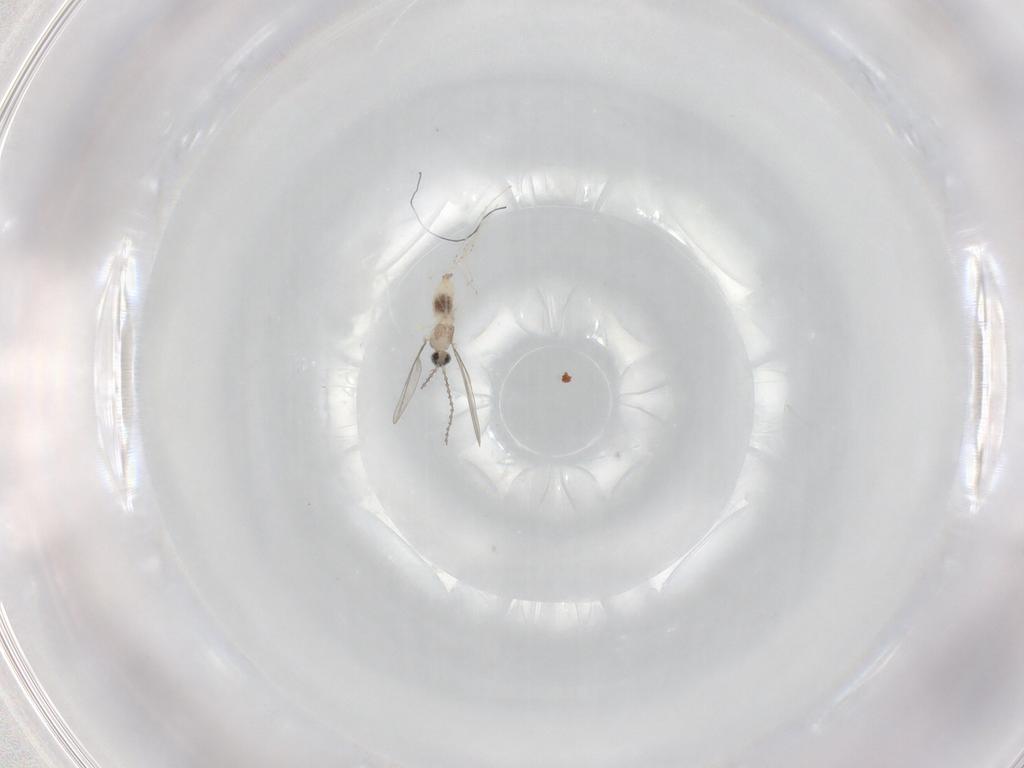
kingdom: Animalia
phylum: Arthropoda
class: Insecta
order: Diptera
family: Cecidomyiidae
